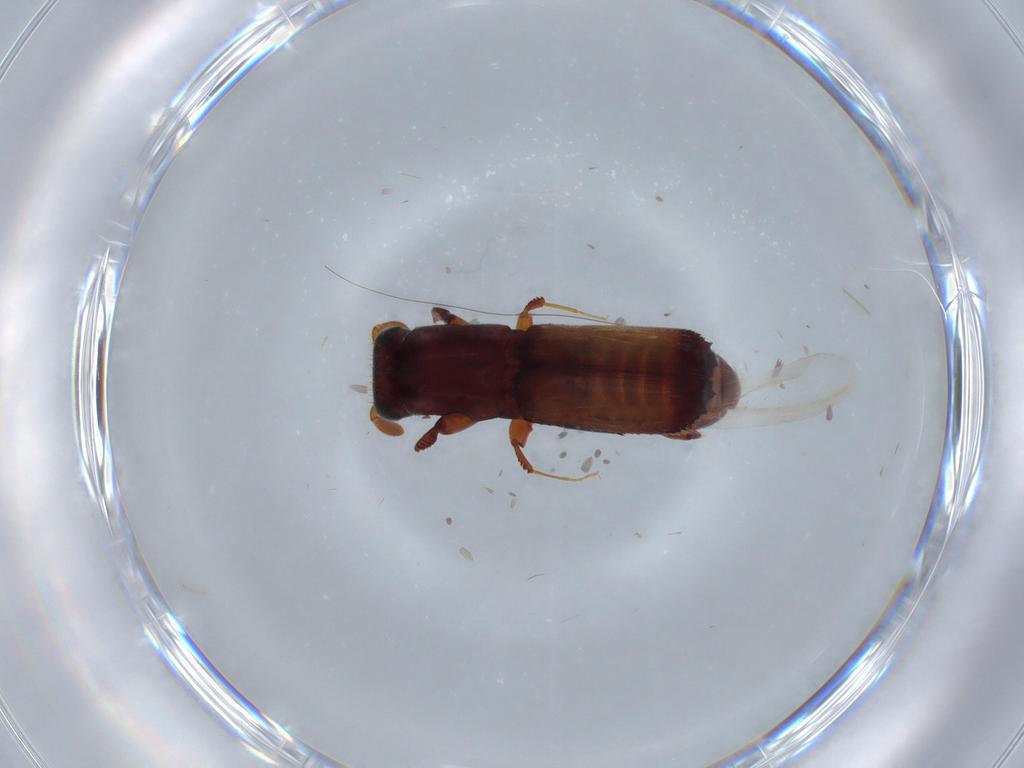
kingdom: Animalia
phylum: Arthropoda
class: Insecta
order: Coleoptera
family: Curculionidae
